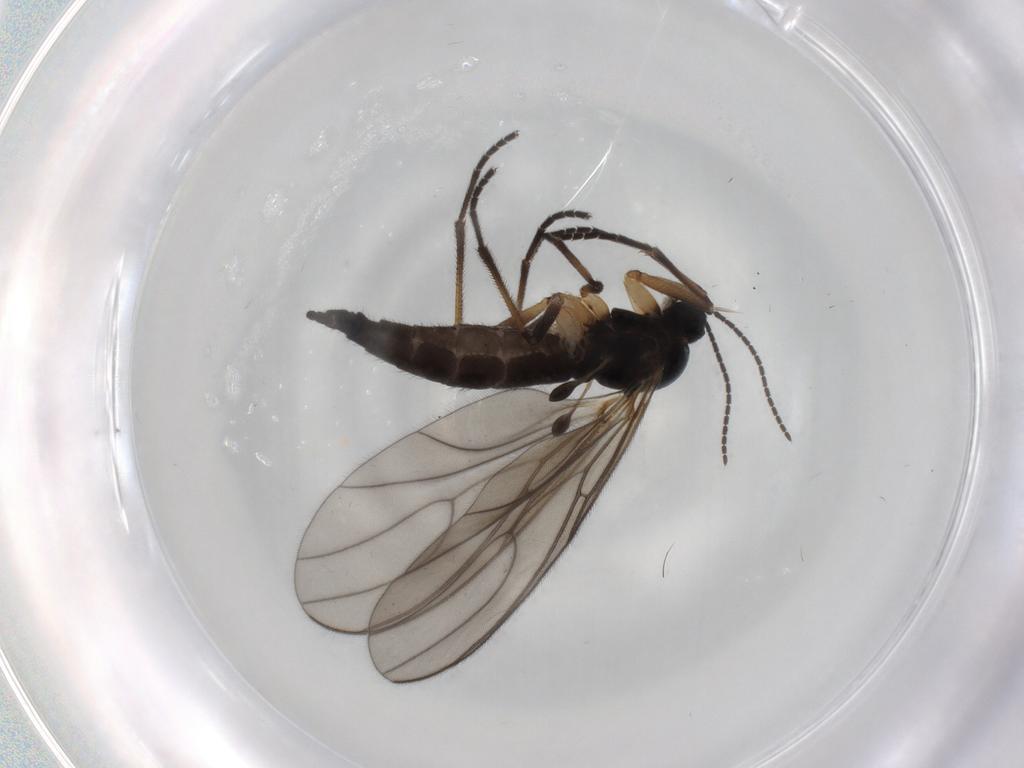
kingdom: Animalia
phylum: Arthropoda
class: Insecta
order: Diptera
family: Sciaridae
